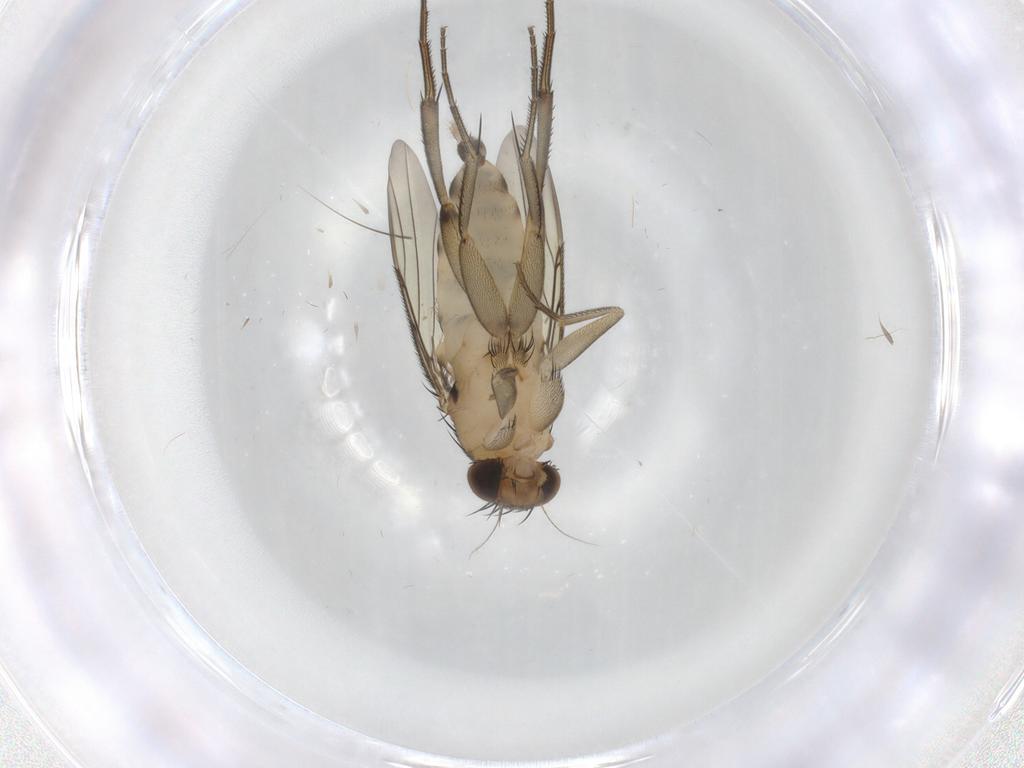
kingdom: Animalia
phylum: Arthropoda
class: Insecta
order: Diptera
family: Phoridae
